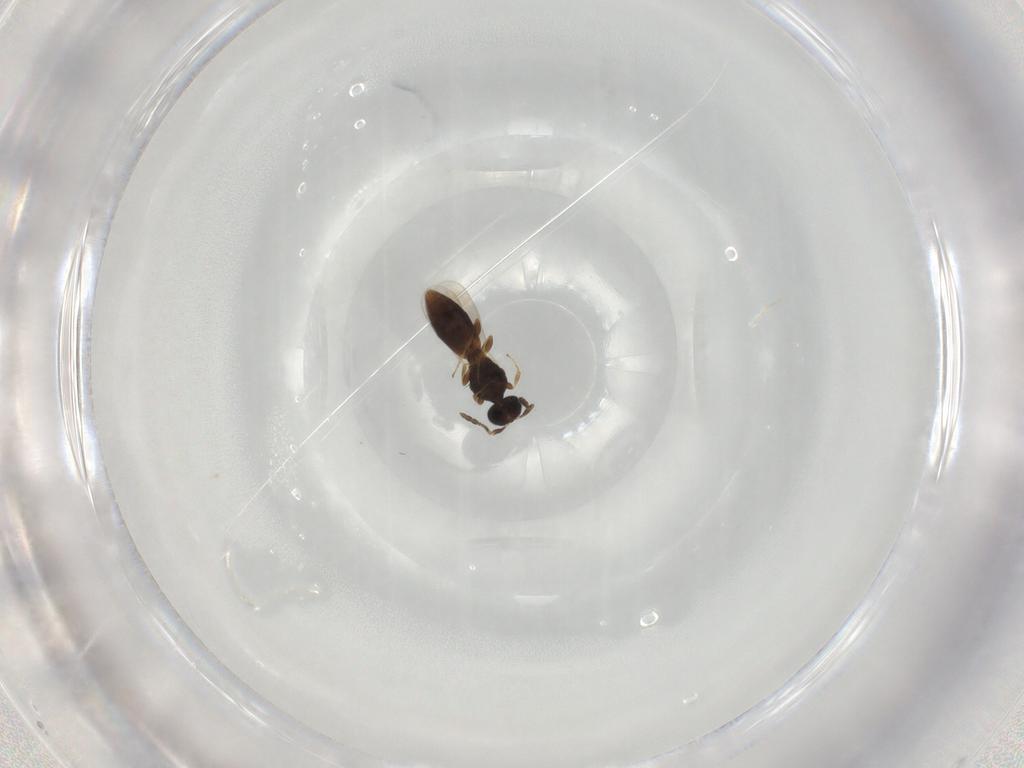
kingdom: Animalia
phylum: Arthropoda
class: Insecta
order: Hymenoptera
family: Platygastridae
